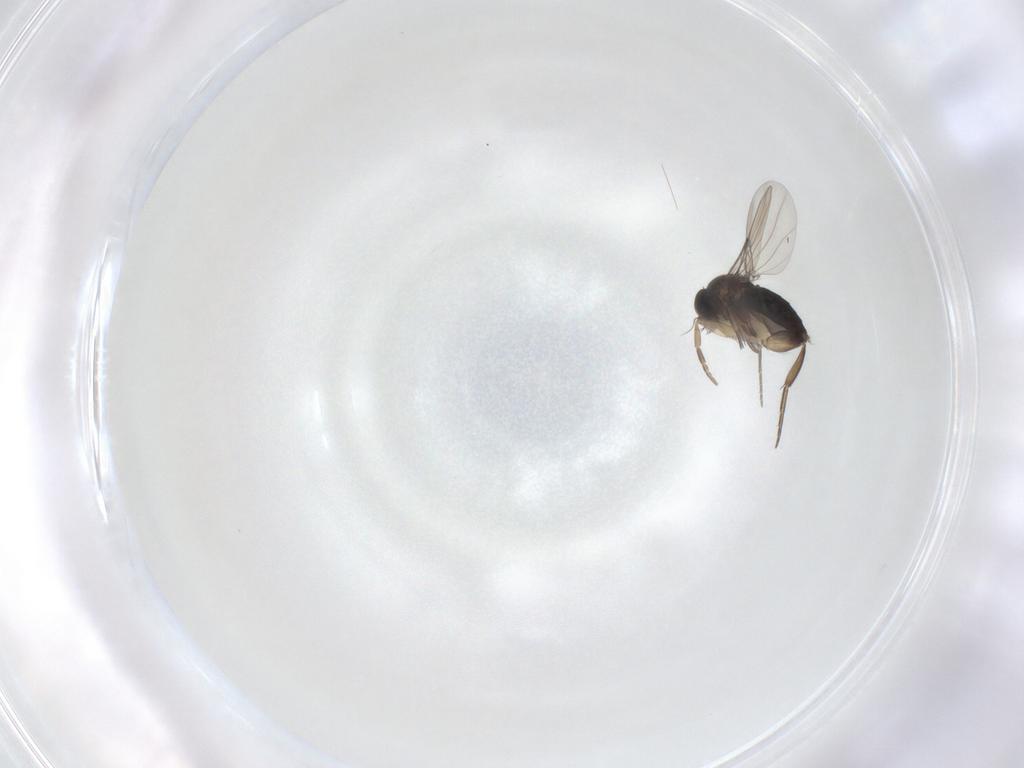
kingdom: Animalia
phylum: Arthropoda
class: Insecta
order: Diptera
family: Phoridae
